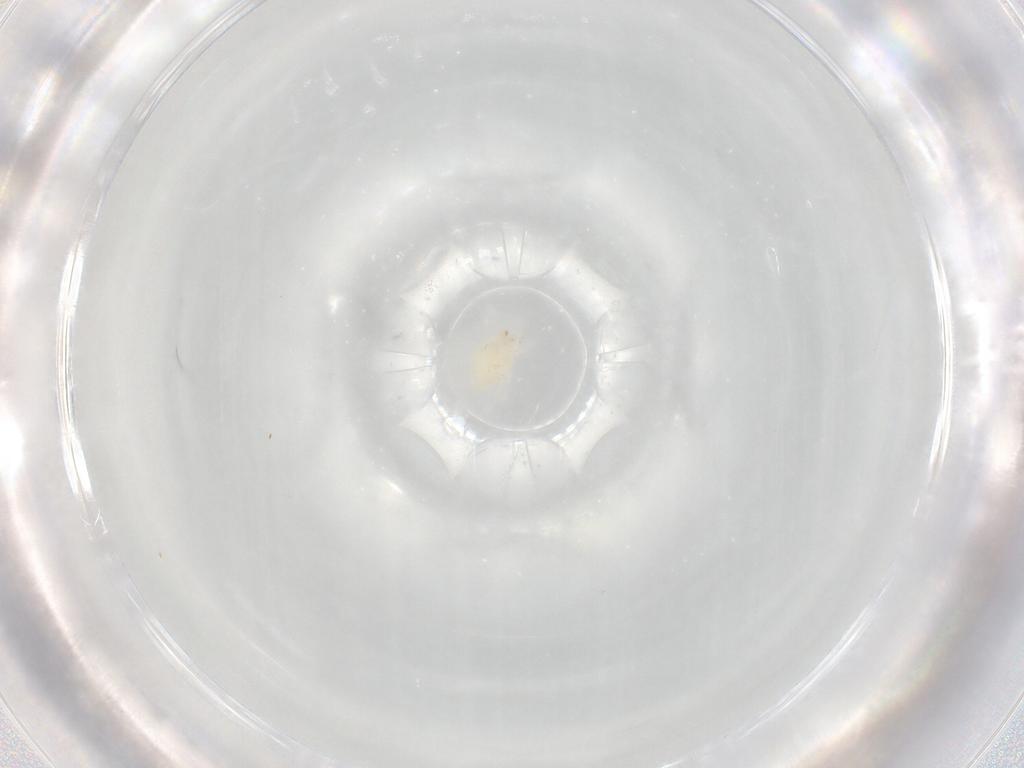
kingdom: Animalia
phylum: Arthropoda
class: Arachnida
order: Trombidiformes
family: Stigmaeidae
